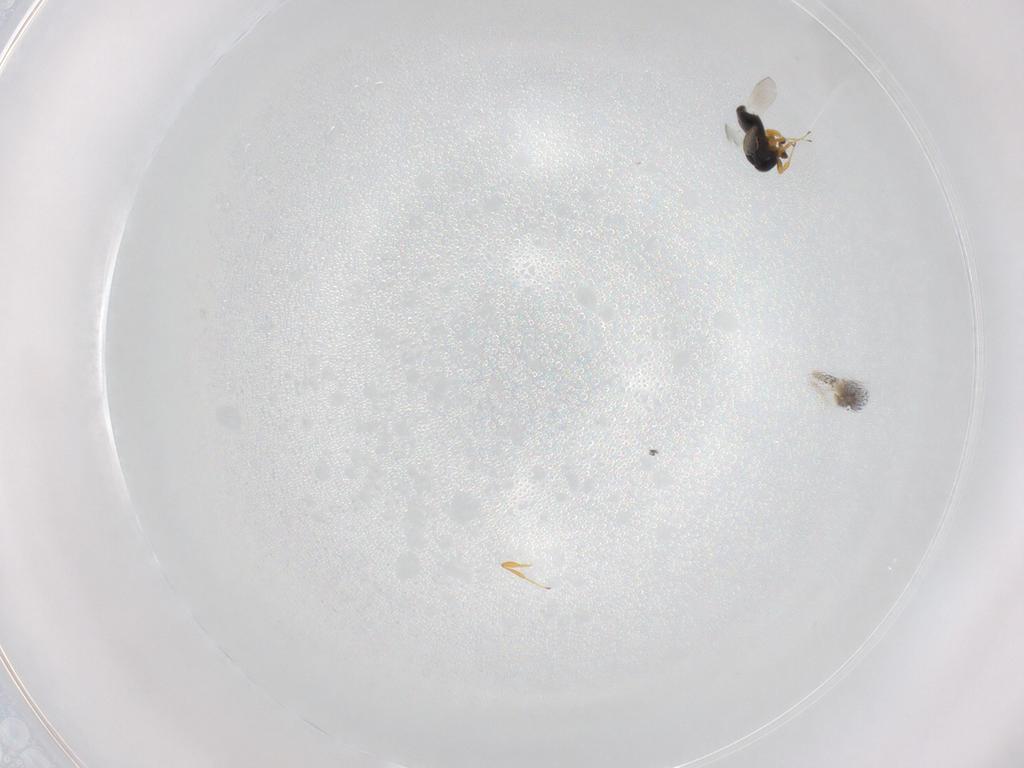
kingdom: Animalia
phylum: Arthropoda
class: Insecta
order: Hymenoptera
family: Platygastridae
